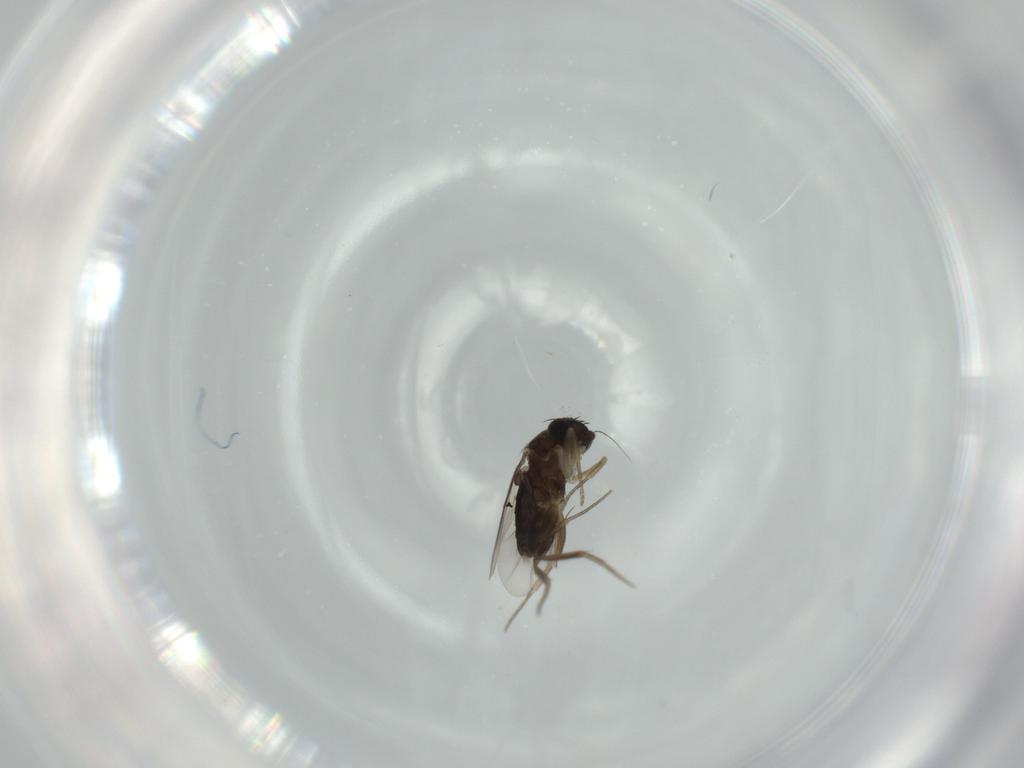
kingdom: Animalia
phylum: Arthropoda
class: Insecta
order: Diptera
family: Phoridae
